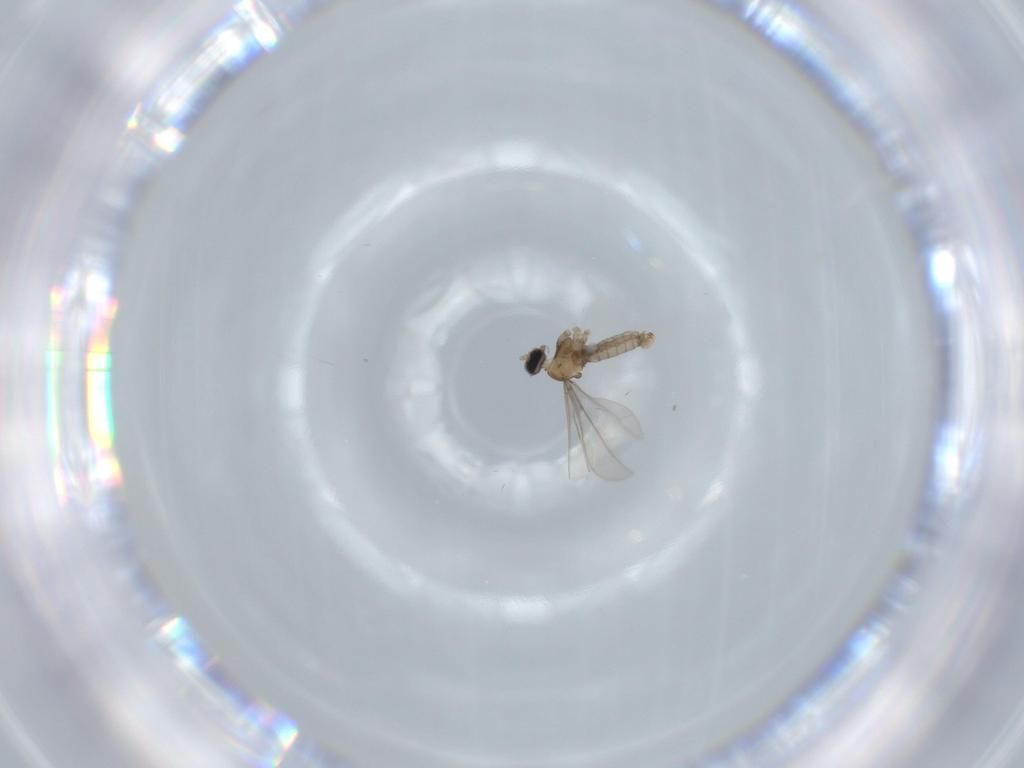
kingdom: Animalia
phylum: Arthropoda
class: Insecta
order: Diptera
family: Cecidomyiidae
